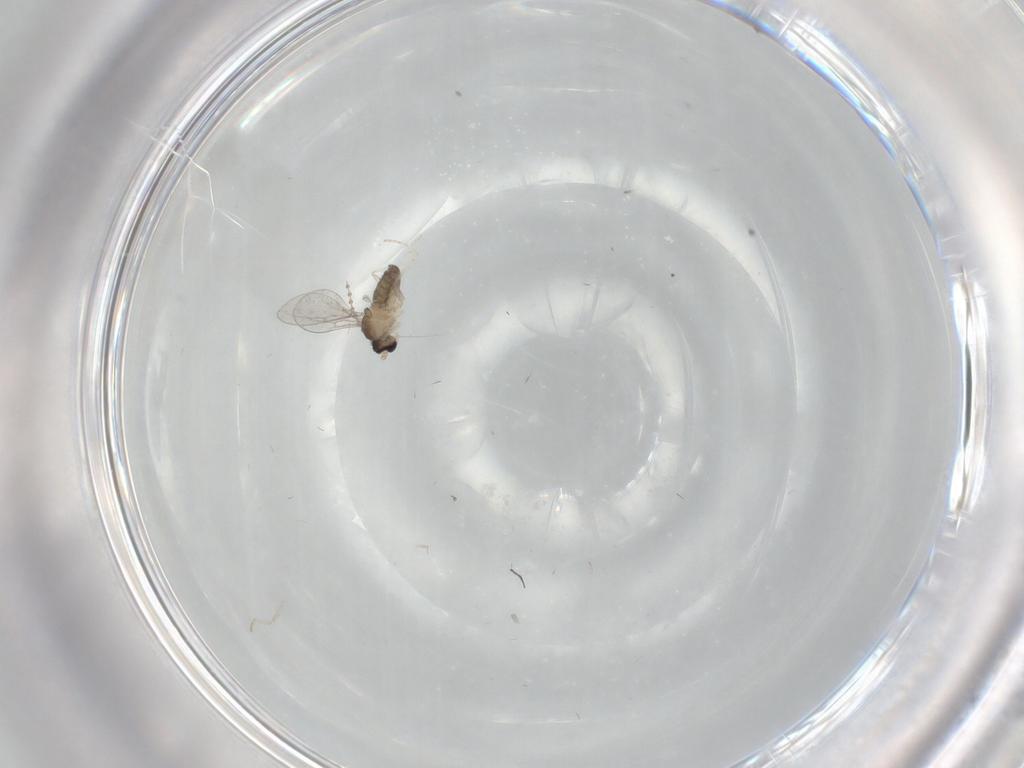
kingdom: Animalia
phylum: Arthropoda
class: Insecta
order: Diptera
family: Cecidomyiidae
